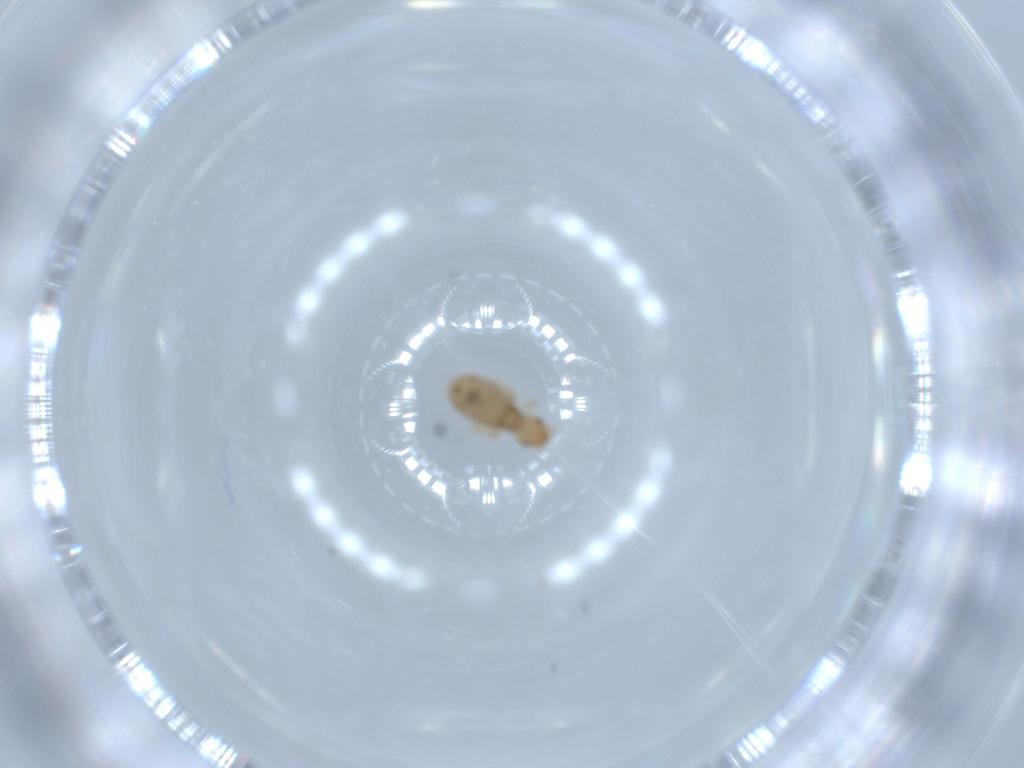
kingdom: Animalia
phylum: Arthropoda
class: Insecta
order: Psocodea
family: Liposcelididae
